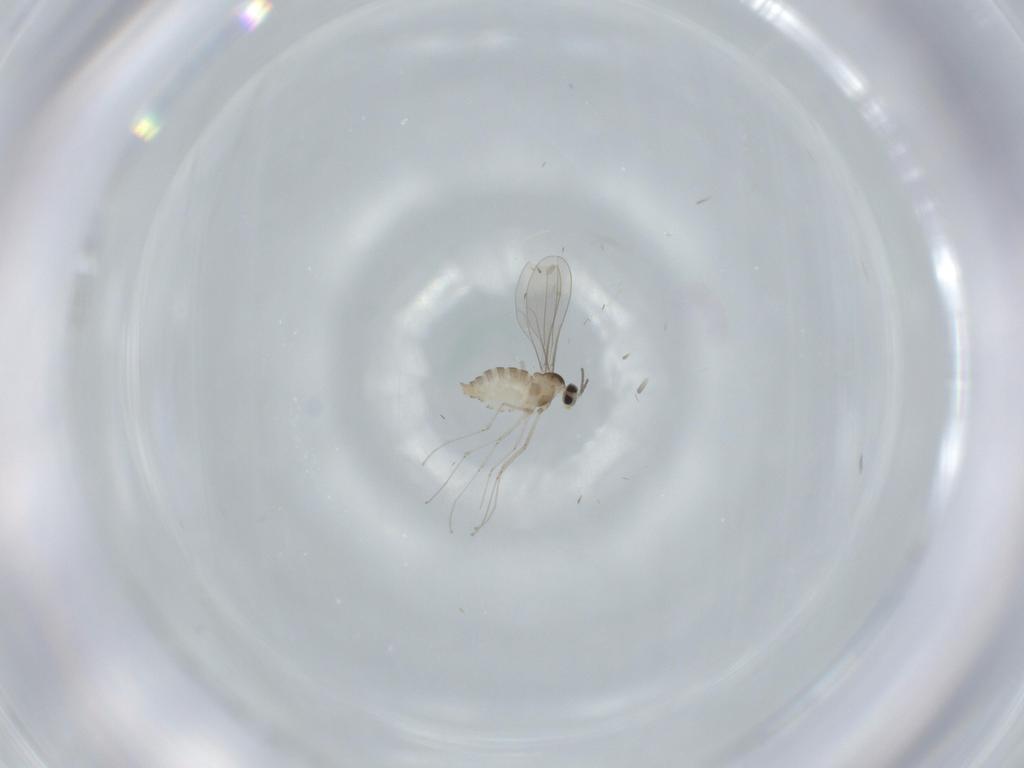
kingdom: Animalia
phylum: Arthropoda
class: Insecta
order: Diptera
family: Cecidomyiidae
